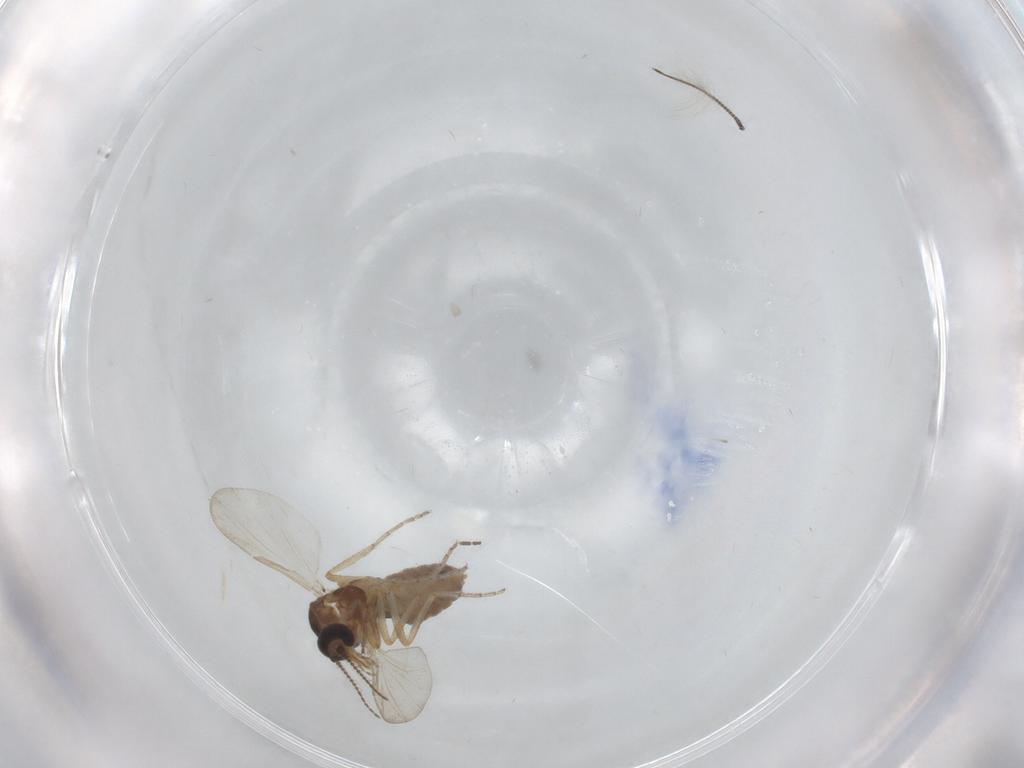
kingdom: Animalia
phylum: Arthropoda
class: Insecta
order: Diptera
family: Sciaridae
